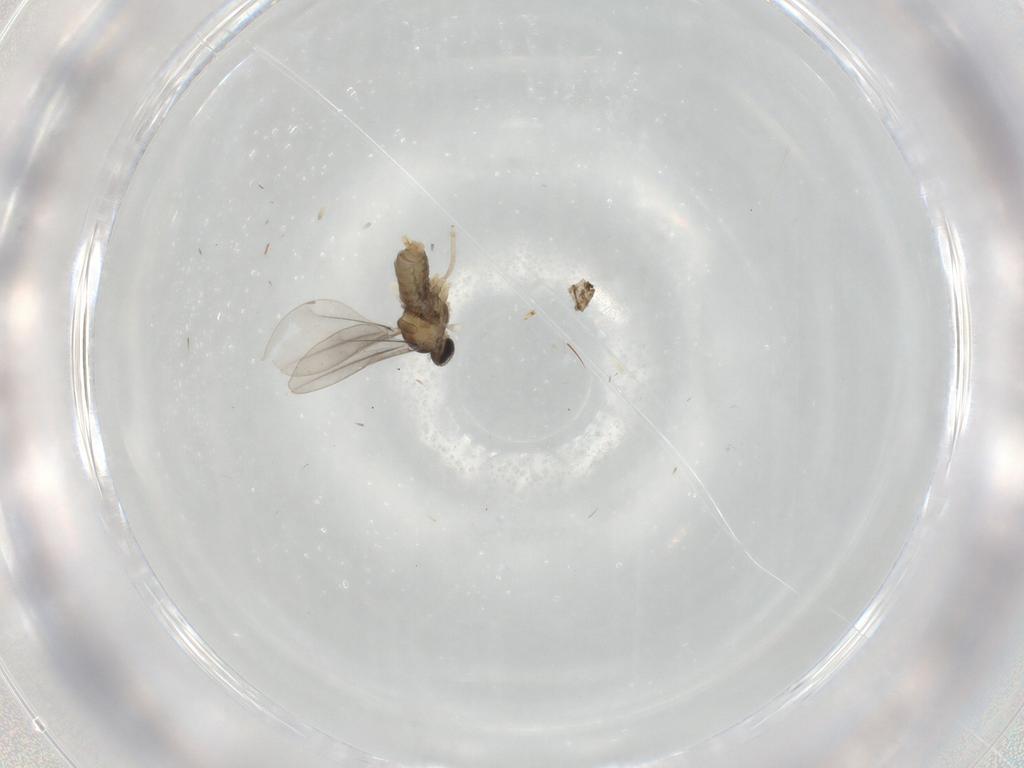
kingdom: Animalia
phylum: Arthropoda
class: Insecta
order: Diptera
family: Cecidomyiidae
